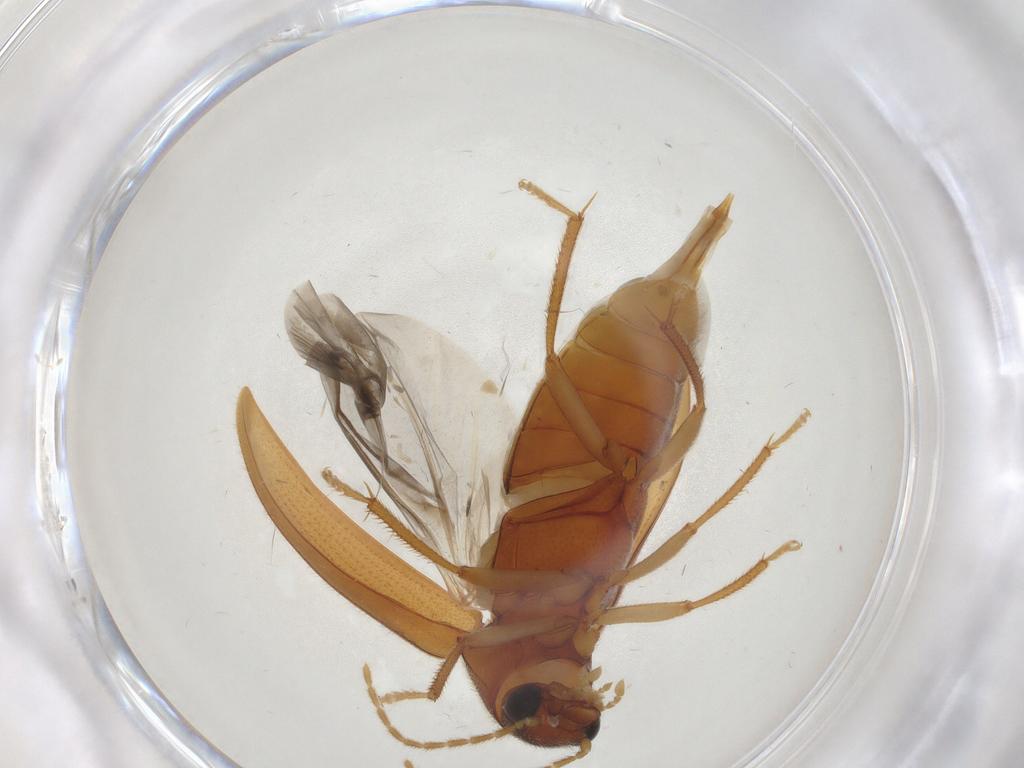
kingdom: Animalia
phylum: Arthropoda
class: Insecta
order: Coleoptera
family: Ptilodactylidae
